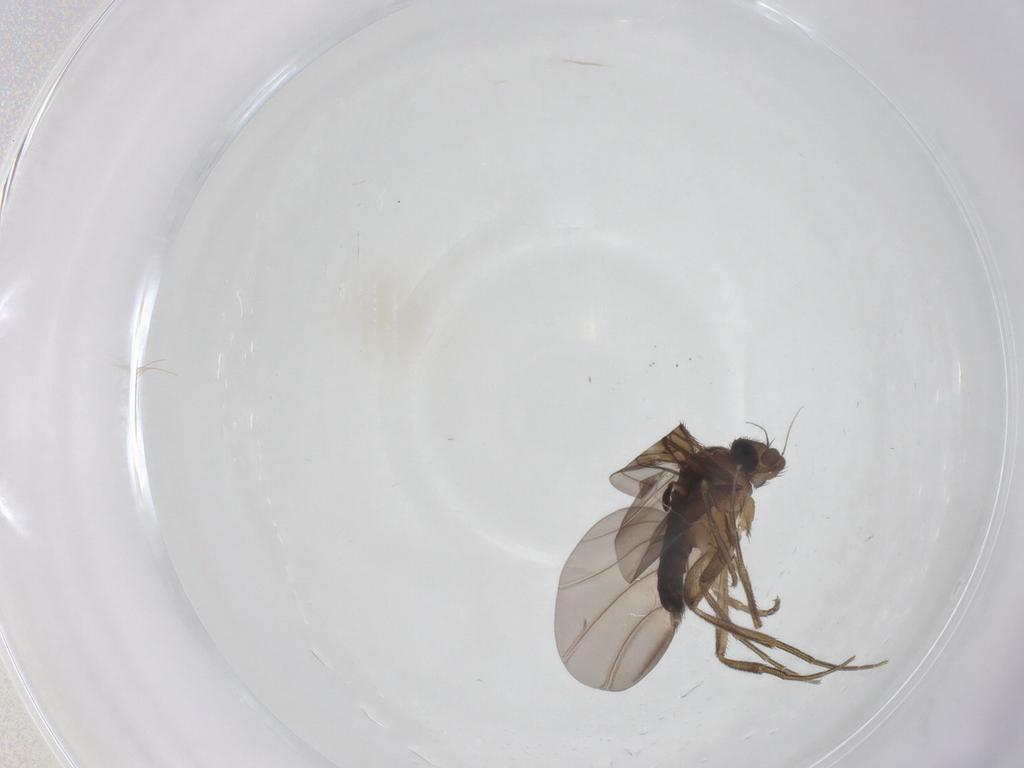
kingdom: Animalia
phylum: Arthropoda
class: Insecta
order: Diptera
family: Phoridae
